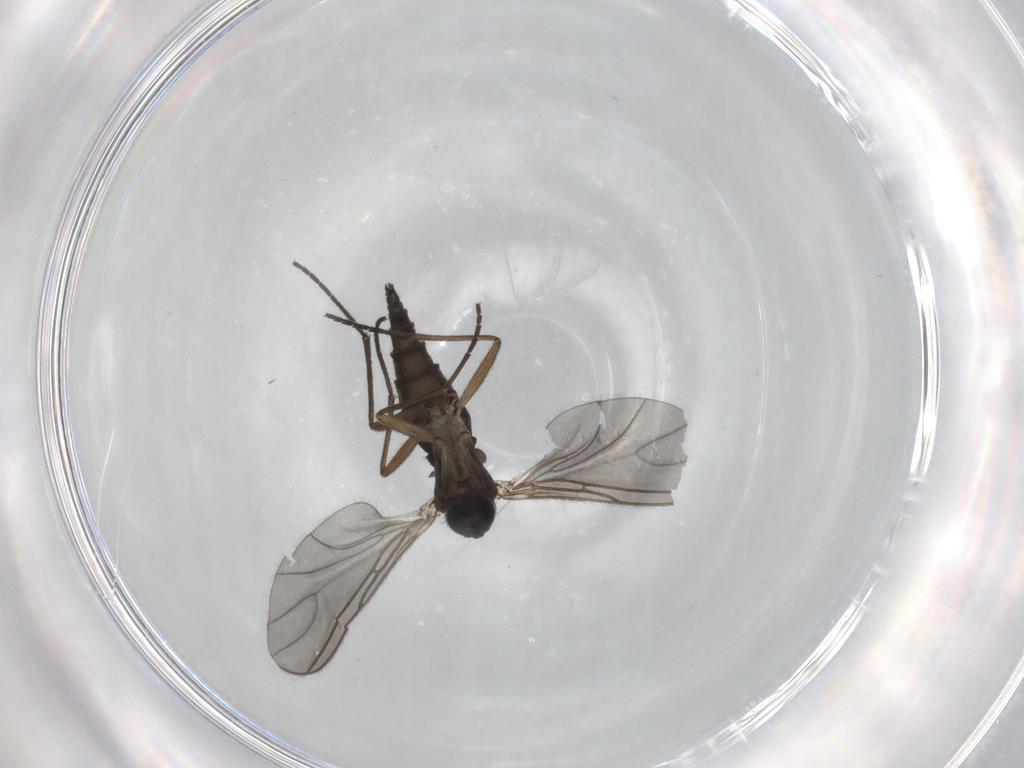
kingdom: Animalia
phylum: Arthropoda
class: Insecta
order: Diptera
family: Sciaridae
